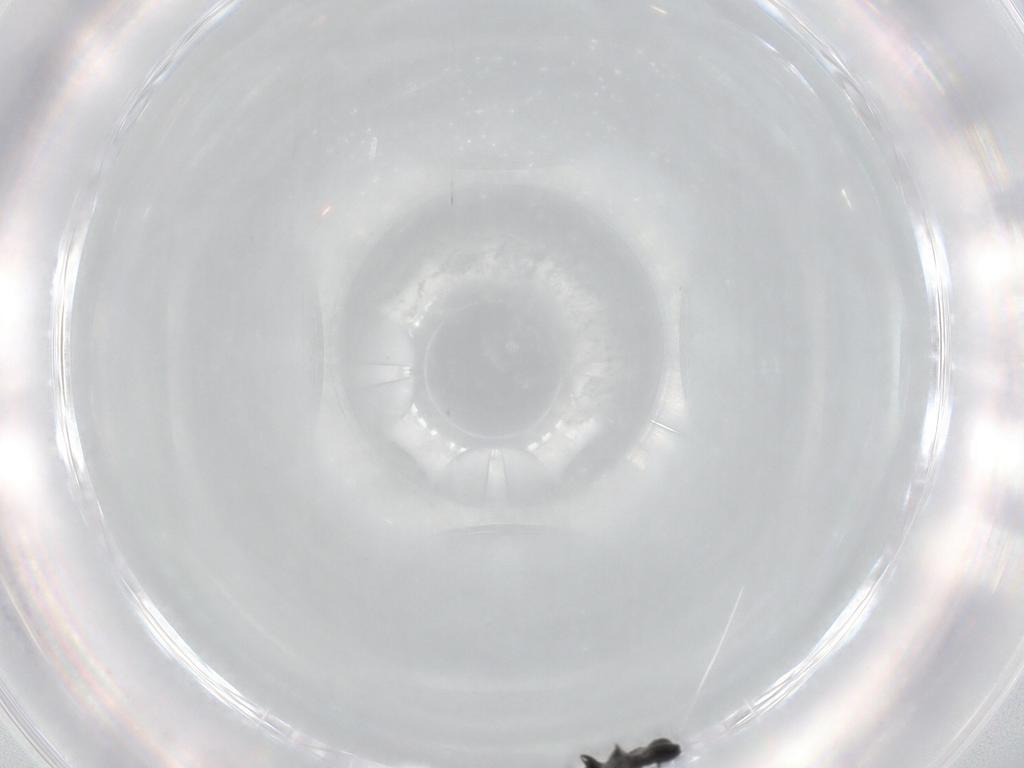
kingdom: Animalia
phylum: Arthropoda
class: Insecta
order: Hymenoptera
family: Scelionidae
